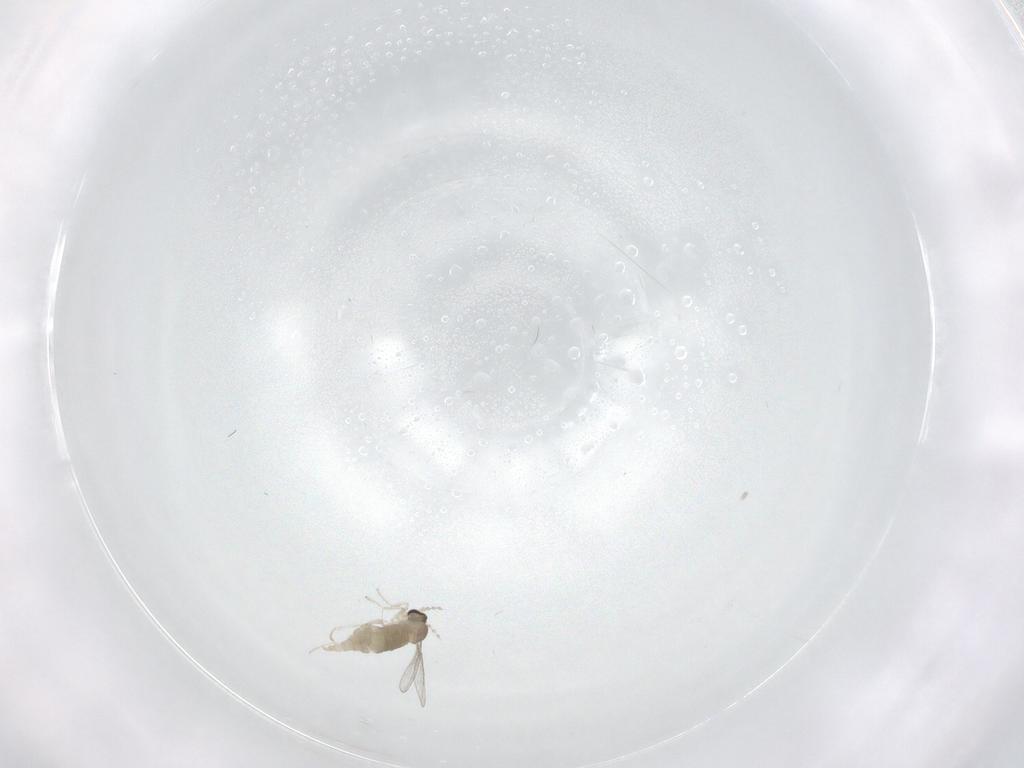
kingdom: Animalia
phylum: Arthropoda
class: Insecta
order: Diptera
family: Cecidomyiidae
